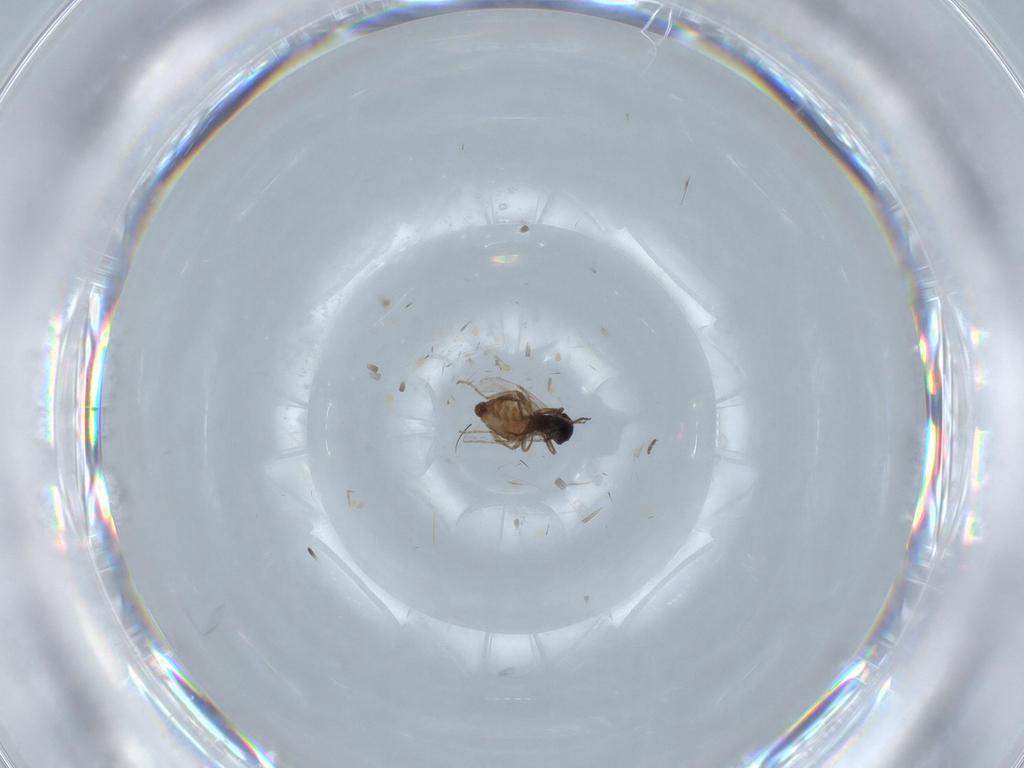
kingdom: Animalia
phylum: Arthropoda
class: Insecta
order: Diptera
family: Ceratopogonidae
